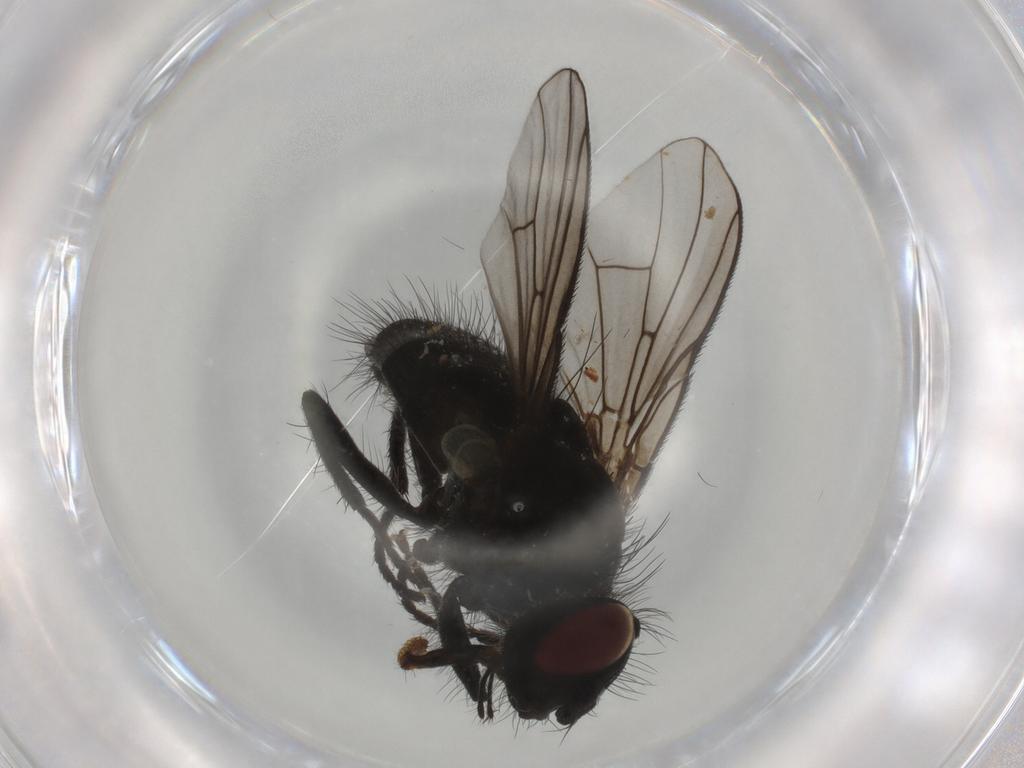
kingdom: Animalia
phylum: Arthropoda
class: Insecta
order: Diptera
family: Muscidae
